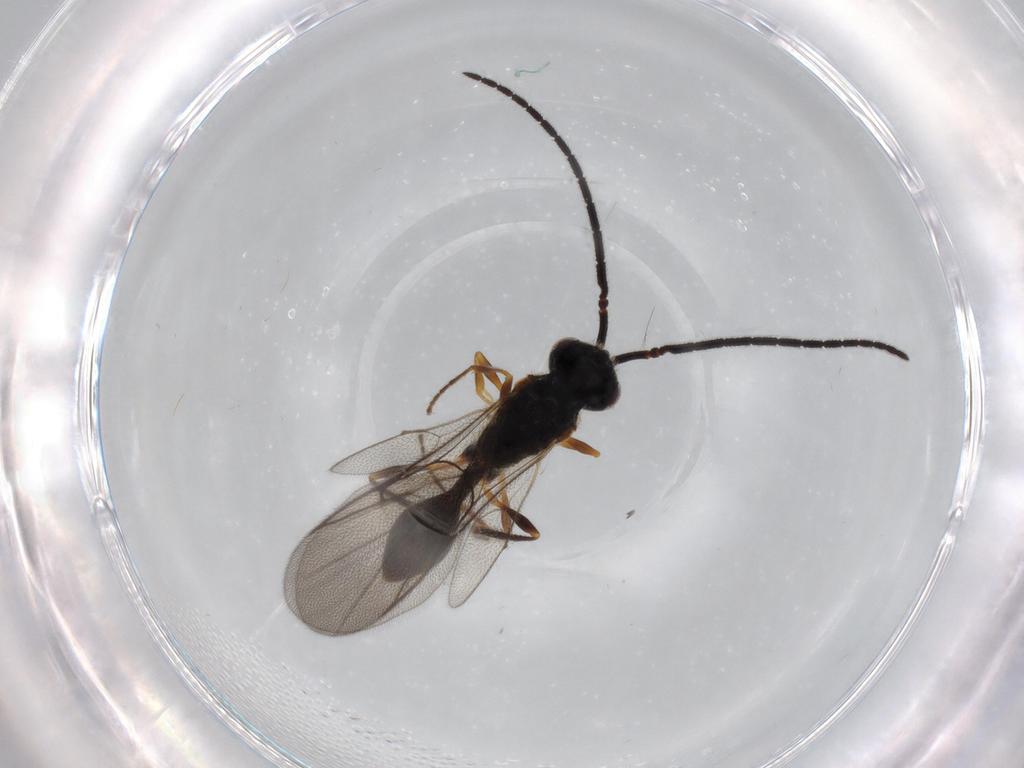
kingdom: Animalia
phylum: Arthropoda
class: Insecta
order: Hymenoptera
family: Diapriidae
